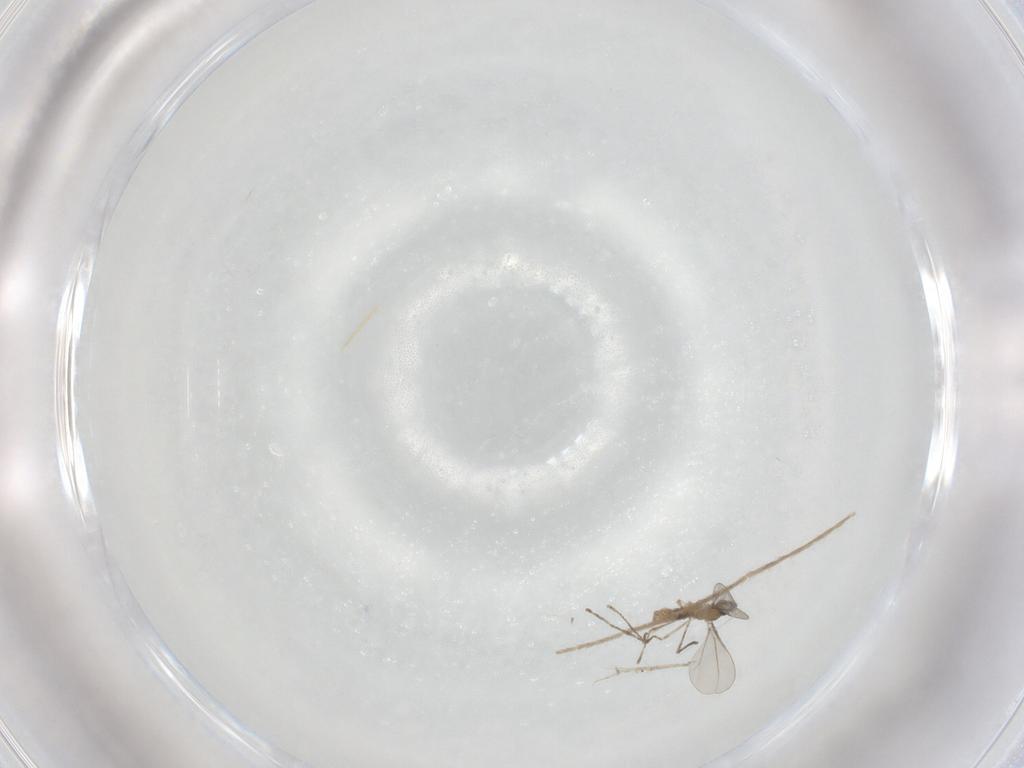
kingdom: Animalia
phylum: Arthropoda
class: Insecta
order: Diptera
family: Cecidomyiidae
